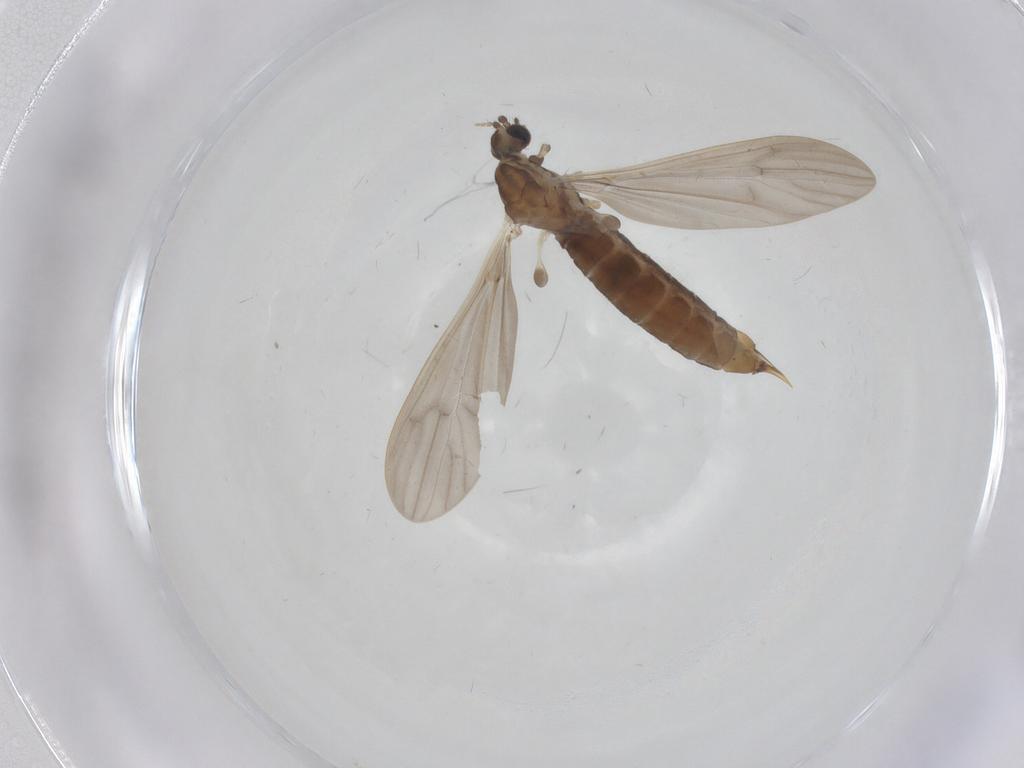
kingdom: Animalia
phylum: Arthropoda
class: Insecta
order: Diptera
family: Limoniidae
